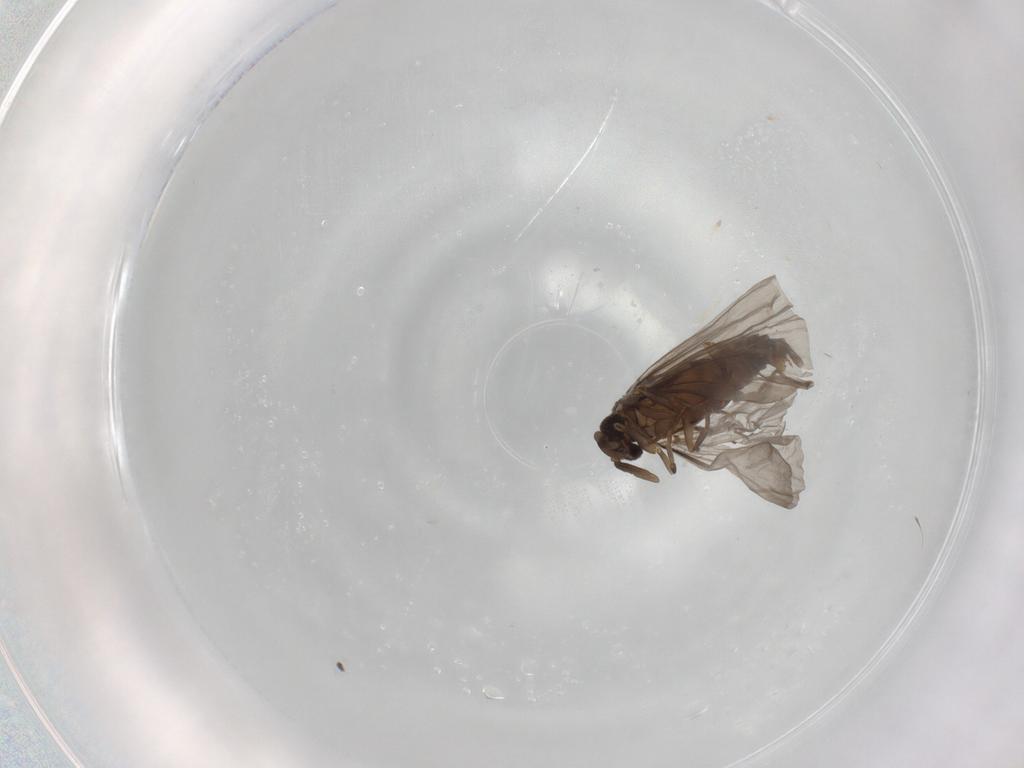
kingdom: Animalia
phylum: Arthropoda
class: Insecta
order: Strepsiptera
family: Mengenillidae
